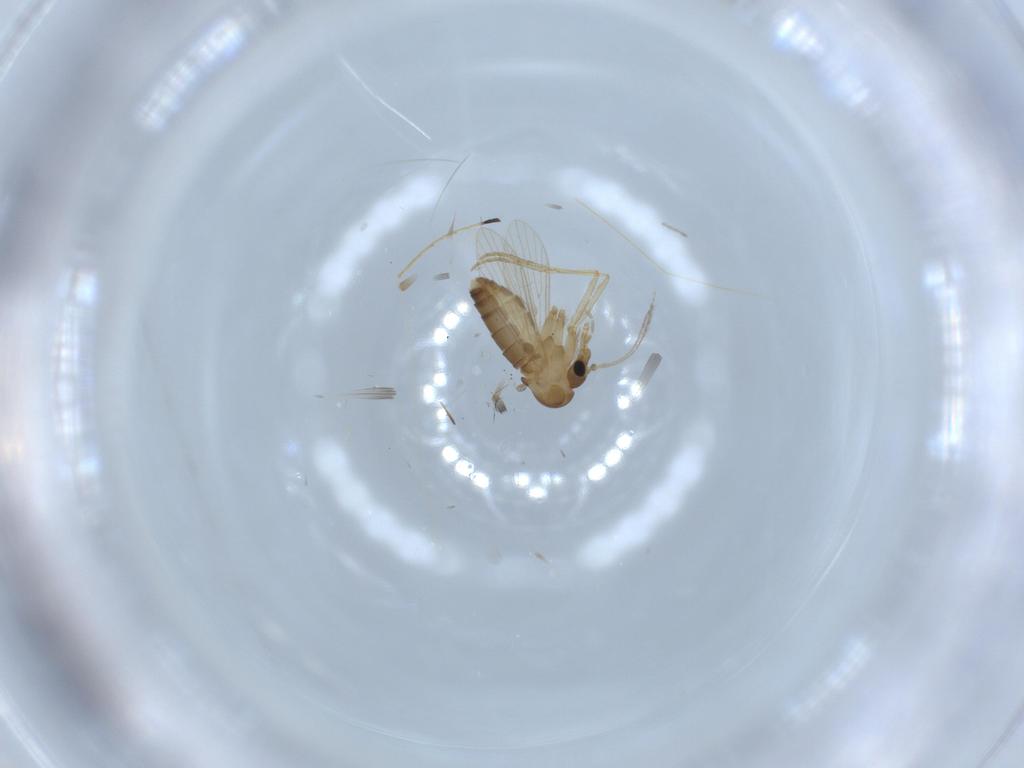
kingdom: Animalia
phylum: Arthropoda
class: Insecta
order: Diptera
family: Psychodidae
